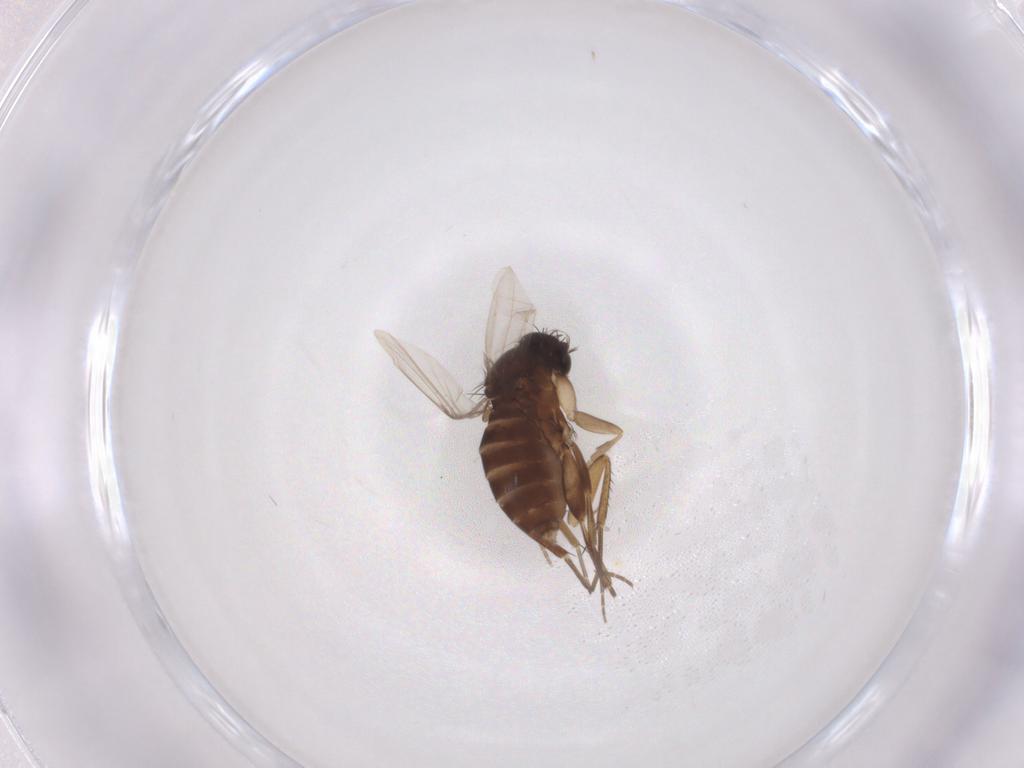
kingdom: Animalia
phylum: Arthropoda
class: Insecta
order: Diptera
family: Phoridae
